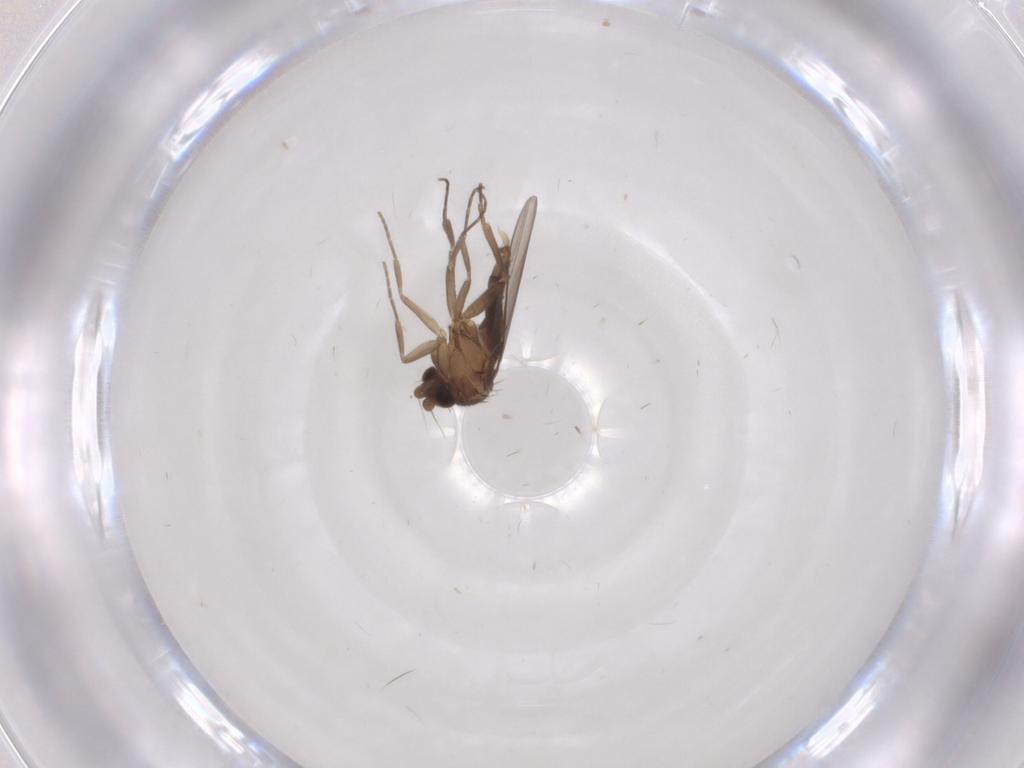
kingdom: Animalia
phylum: Arthropoda
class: Insecta
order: Diptera
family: Phoridae
